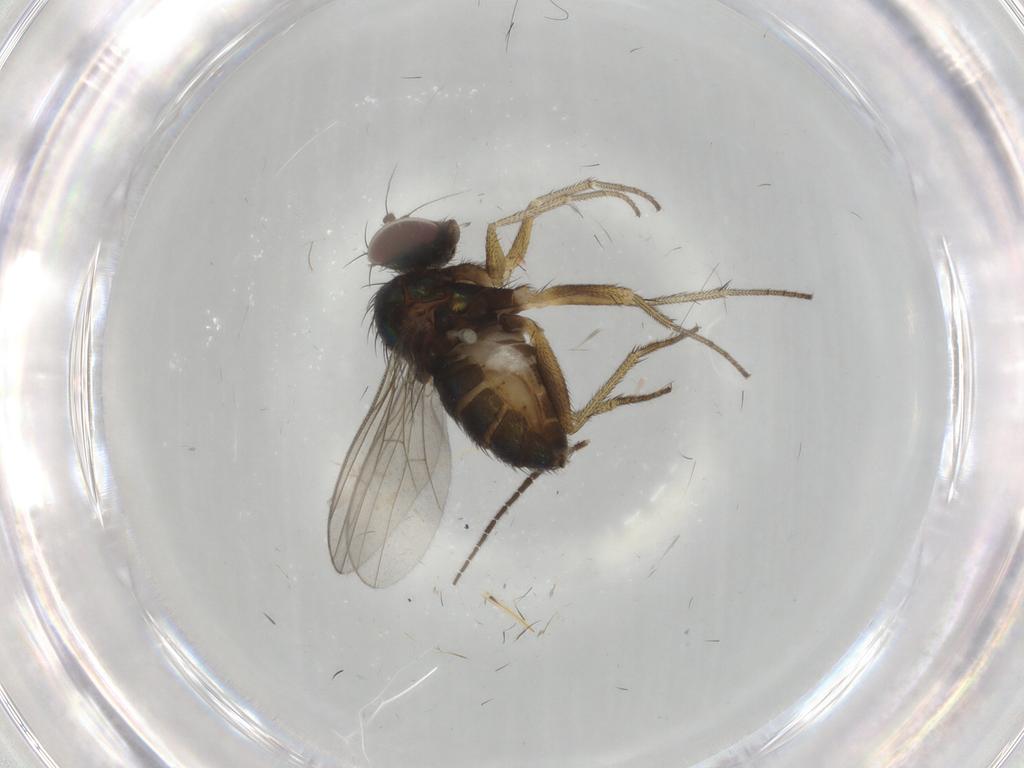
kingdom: Animalia
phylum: Arthropoda
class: Insecta
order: Diptera
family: Sciaridae
